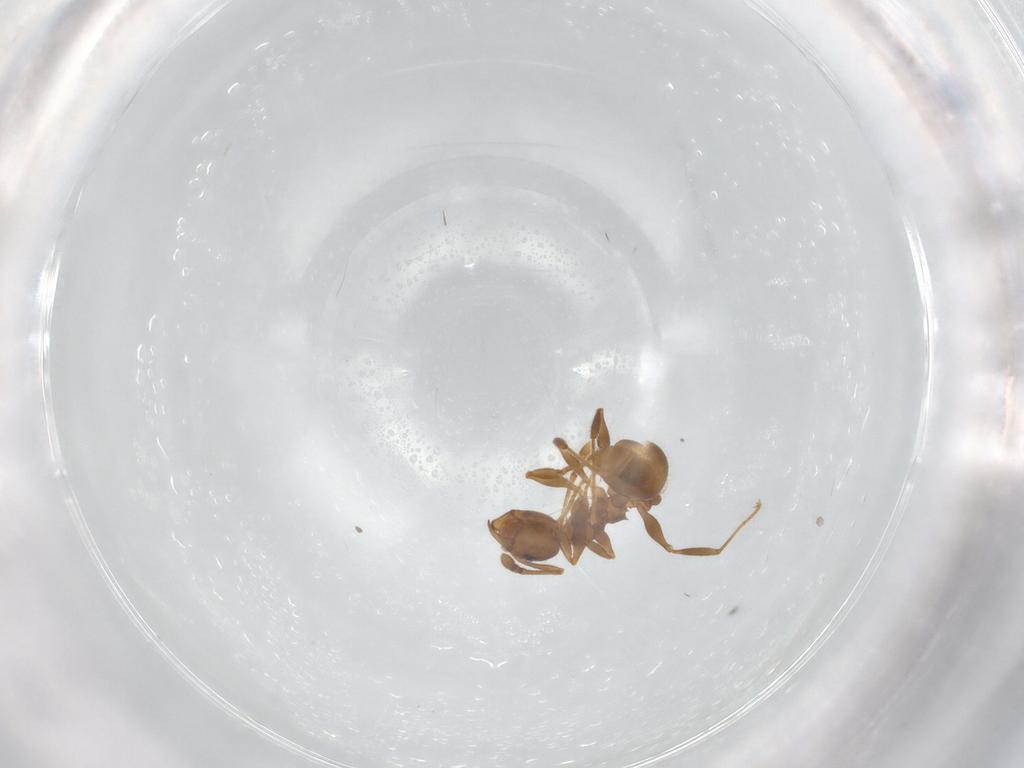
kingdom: Animalia
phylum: Arthropoda
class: Insecta
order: Hymenoptera
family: Formicidae
